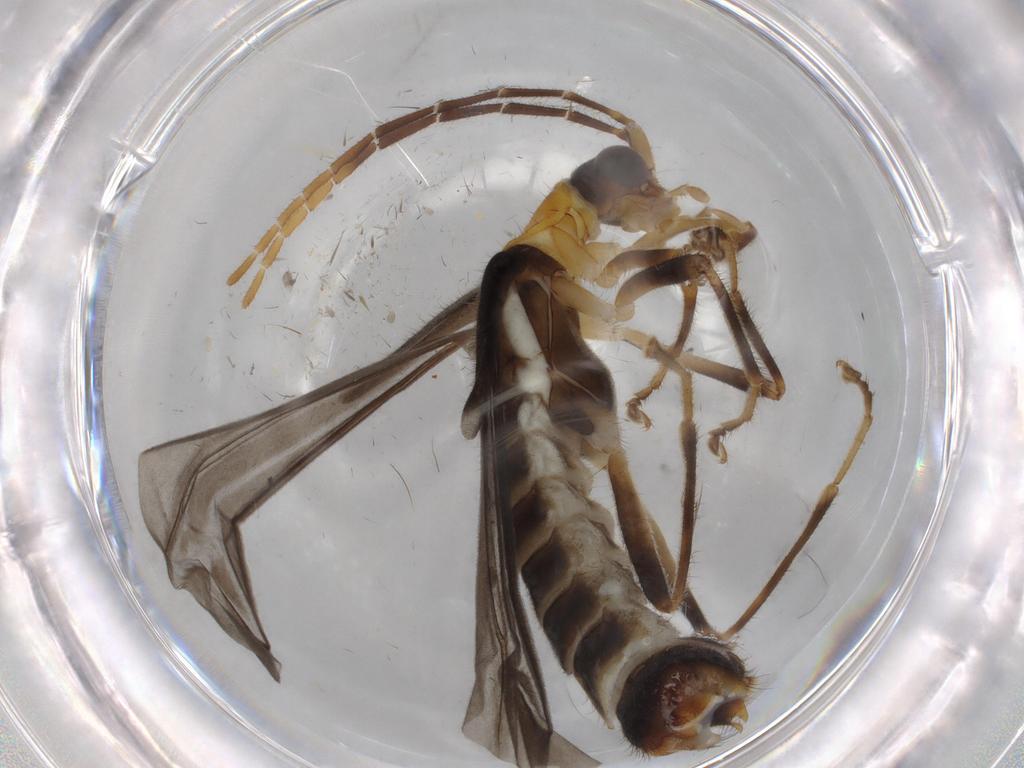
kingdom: Animalia
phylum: Arthropoda
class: Insecta
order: Coleoptera
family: Cantharidae
